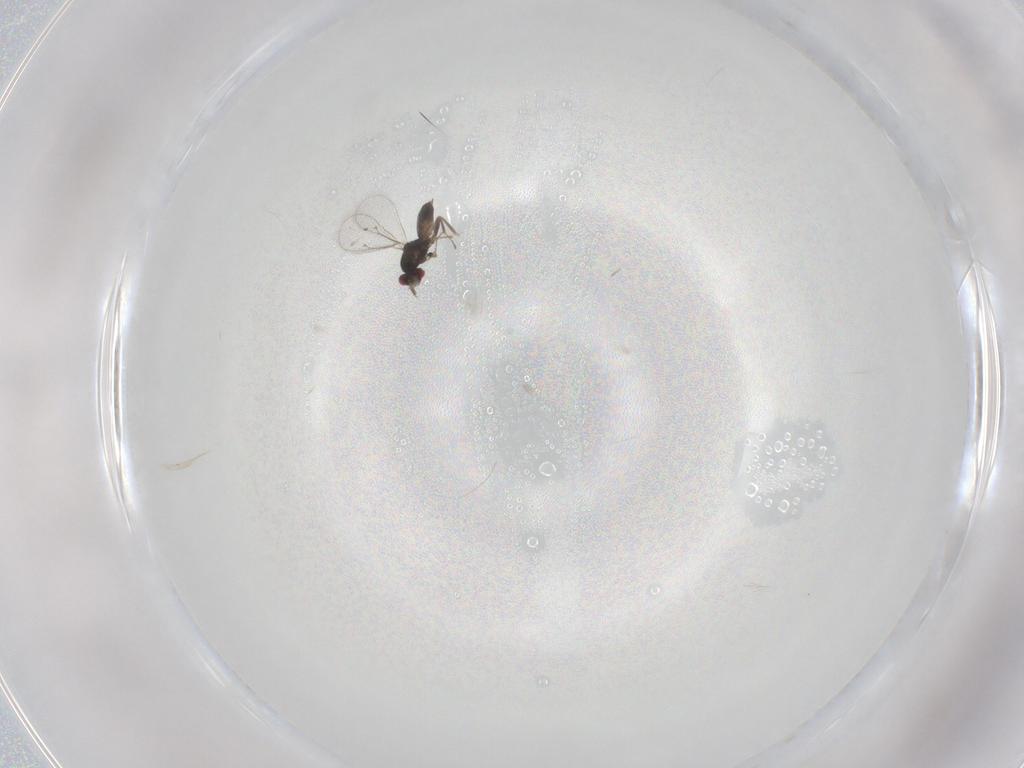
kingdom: Animalia
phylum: Arthropoda
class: Insecta
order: Hymenoptera
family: Eulophidae
